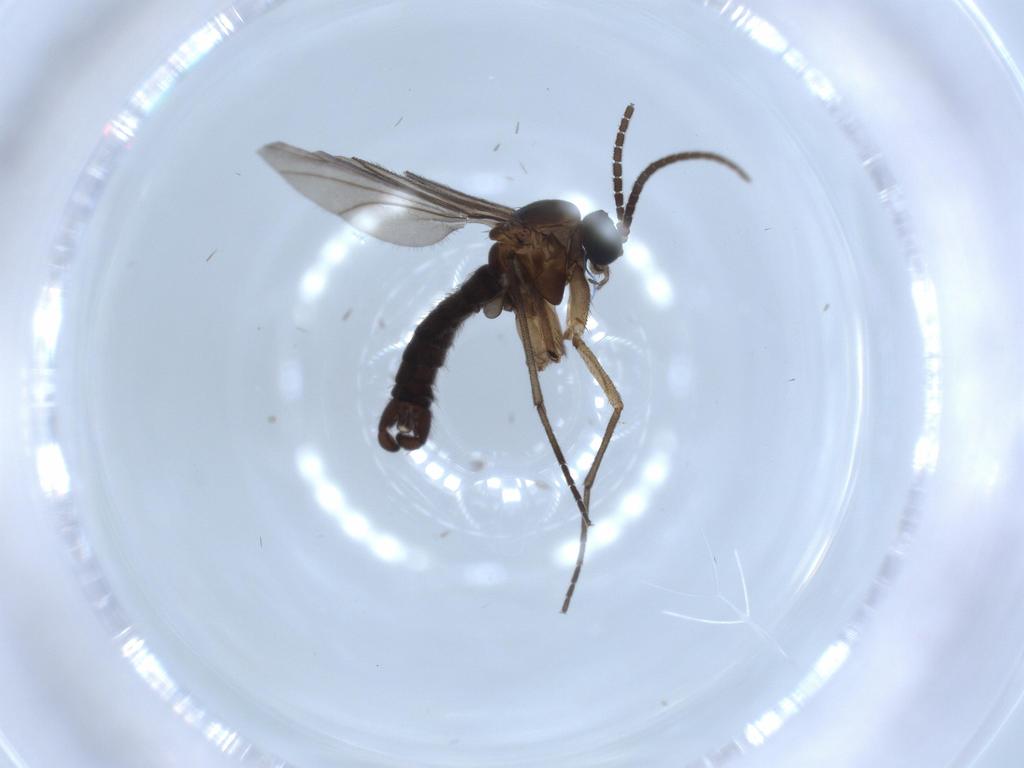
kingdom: Animalia
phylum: Arthropoda
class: Insecta
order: Diptera
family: Sciaridae
